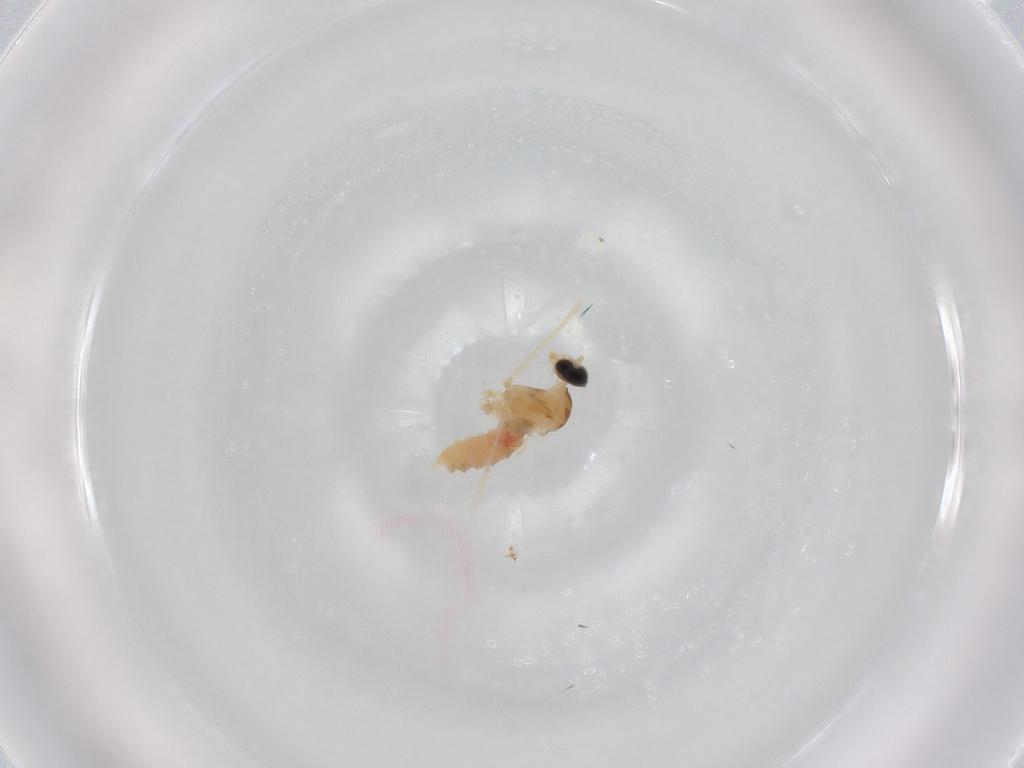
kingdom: Animalia
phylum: Arthropoda
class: Insecta
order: Diptera
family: Cecidomyiidae
